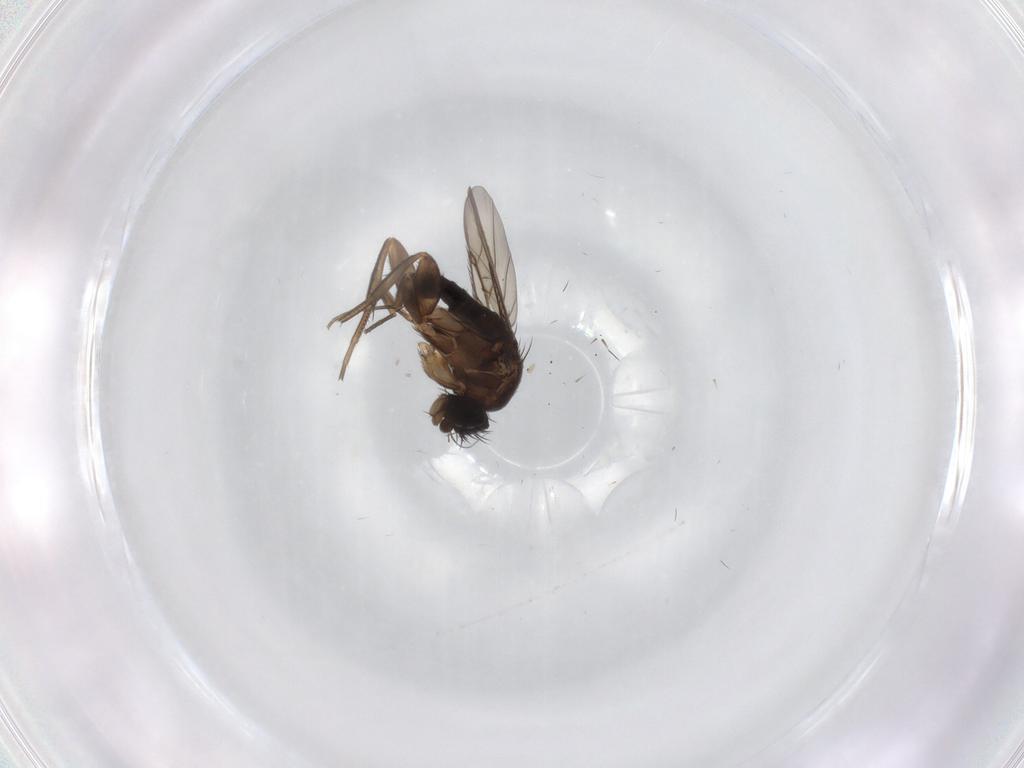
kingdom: Animalia
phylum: Arthropoda
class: Insecta
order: Diptera
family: Phoridae
